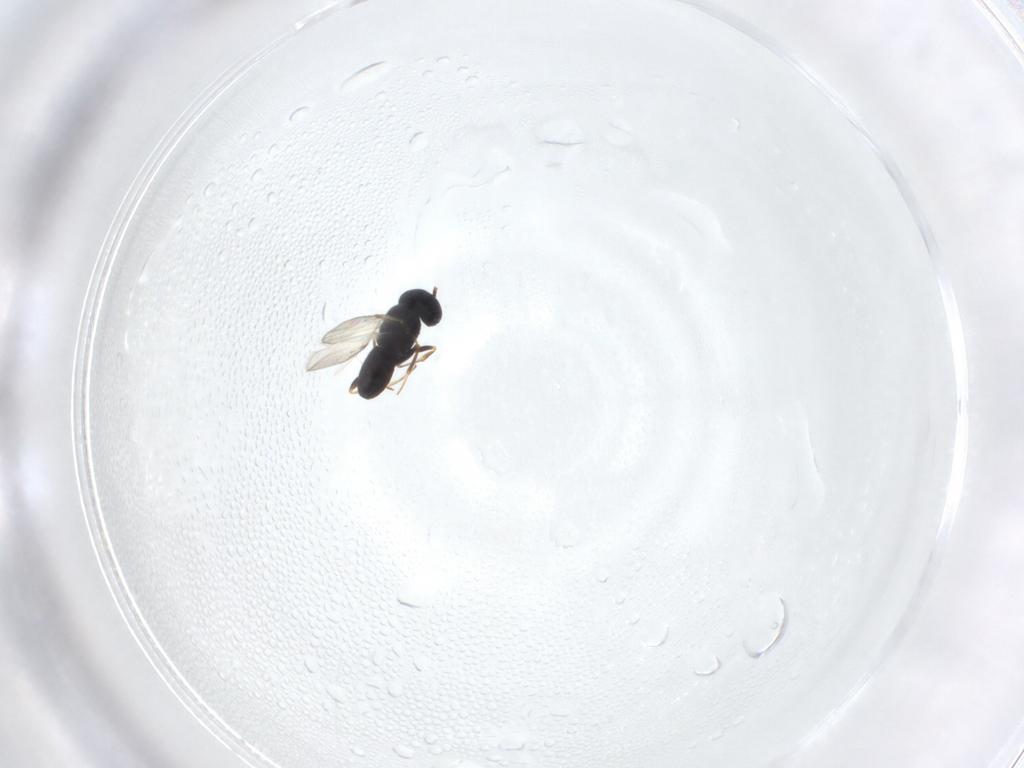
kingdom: Animalia
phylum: Arthropoda
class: Insecta
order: Hymenoptera
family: Scelionidae
